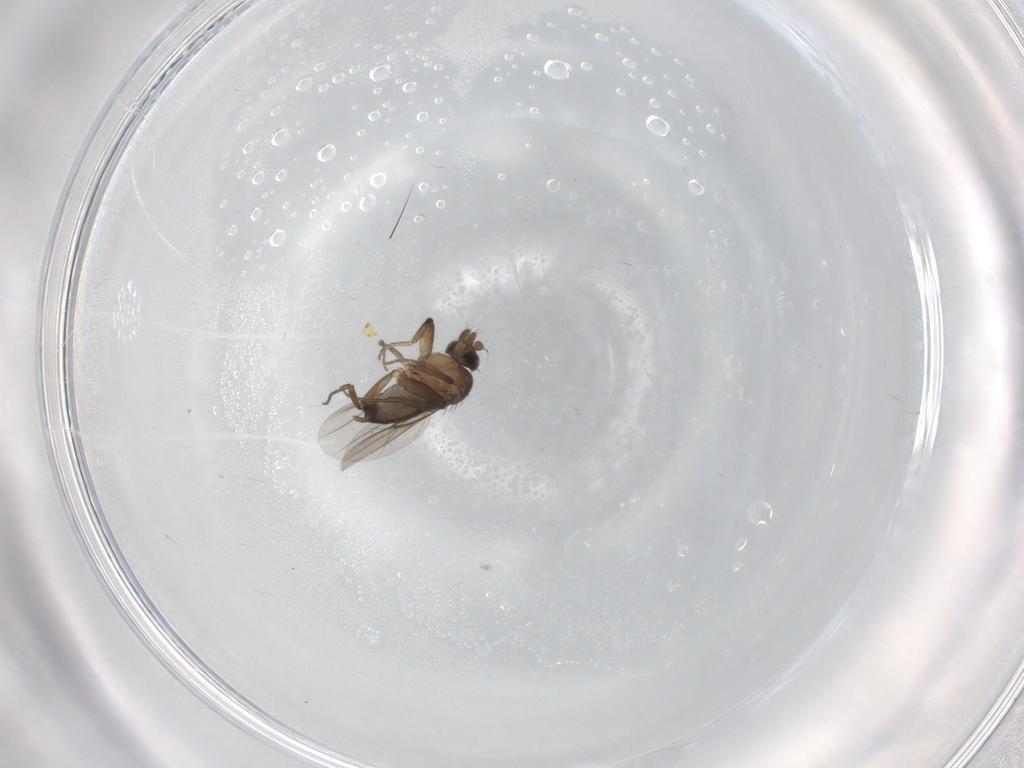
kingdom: Animalia
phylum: Arthropoda
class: Insecta
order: Diptera
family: Phoridae
